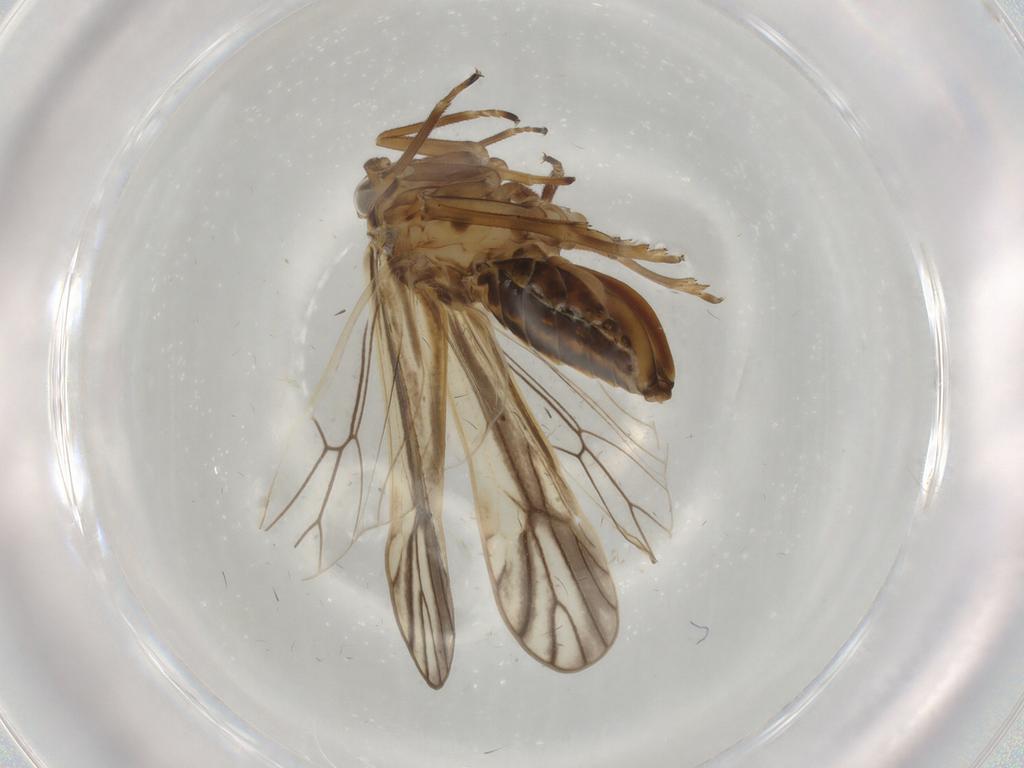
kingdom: Animalia
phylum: Arthropoda
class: Insecta
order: Hemiptera
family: Delphacidae
